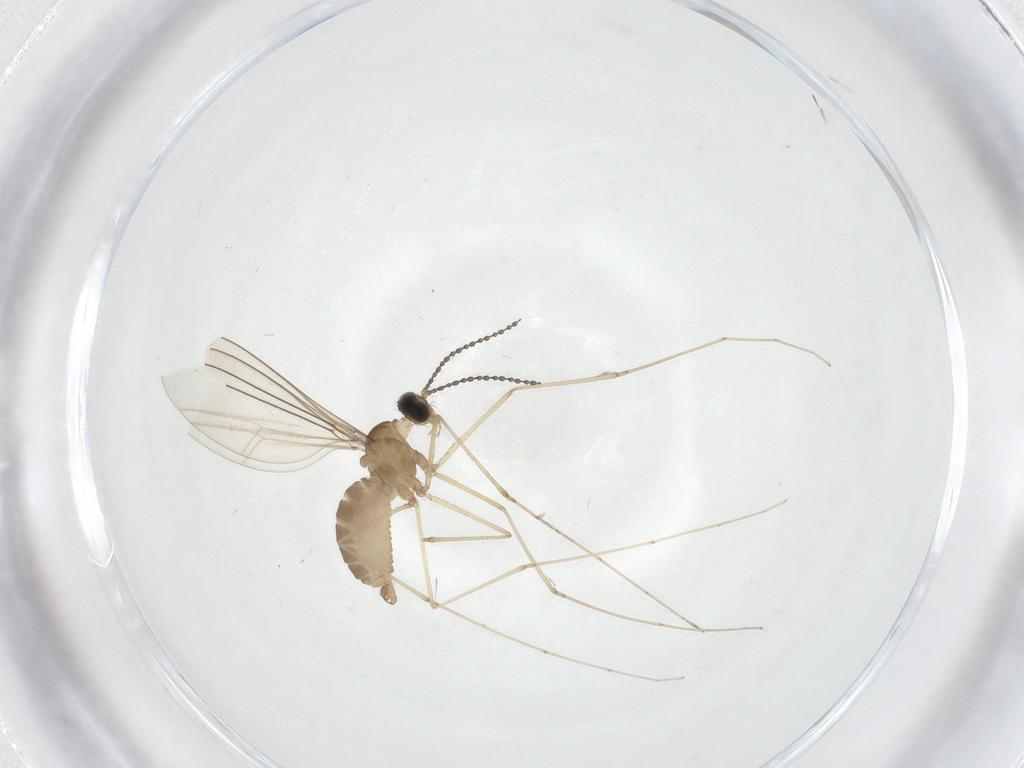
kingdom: Animalia
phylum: Arthropoda
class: Insecta
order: Diptera
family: Cecidomyiidae
